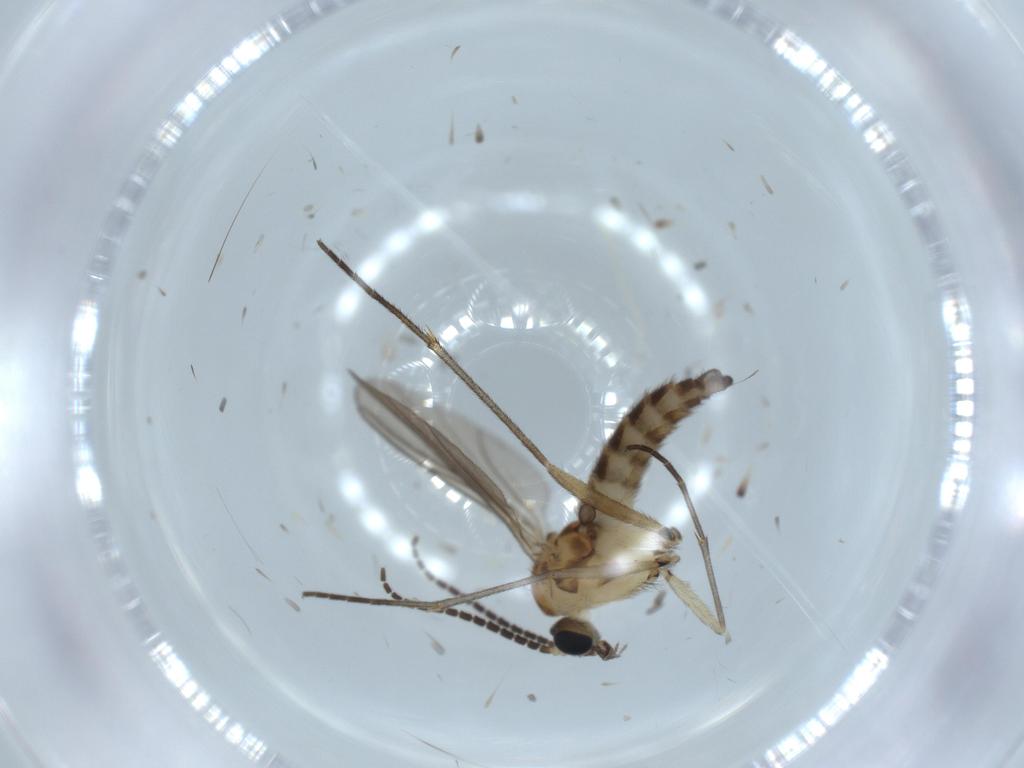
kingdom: Animalia
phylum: Arthropoda
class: Insecta
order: Diptera
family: Sciaridae
